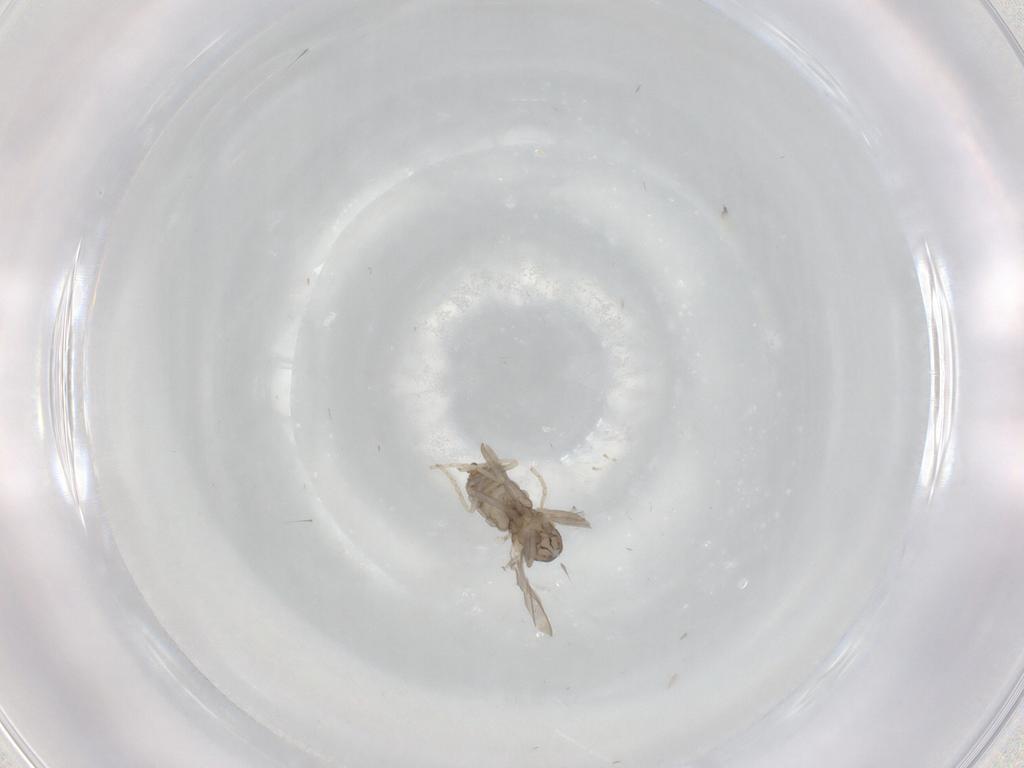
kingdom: Animalia
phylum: Arthropoda
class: Insecta
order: Diptera
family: Cecidomyiidae
